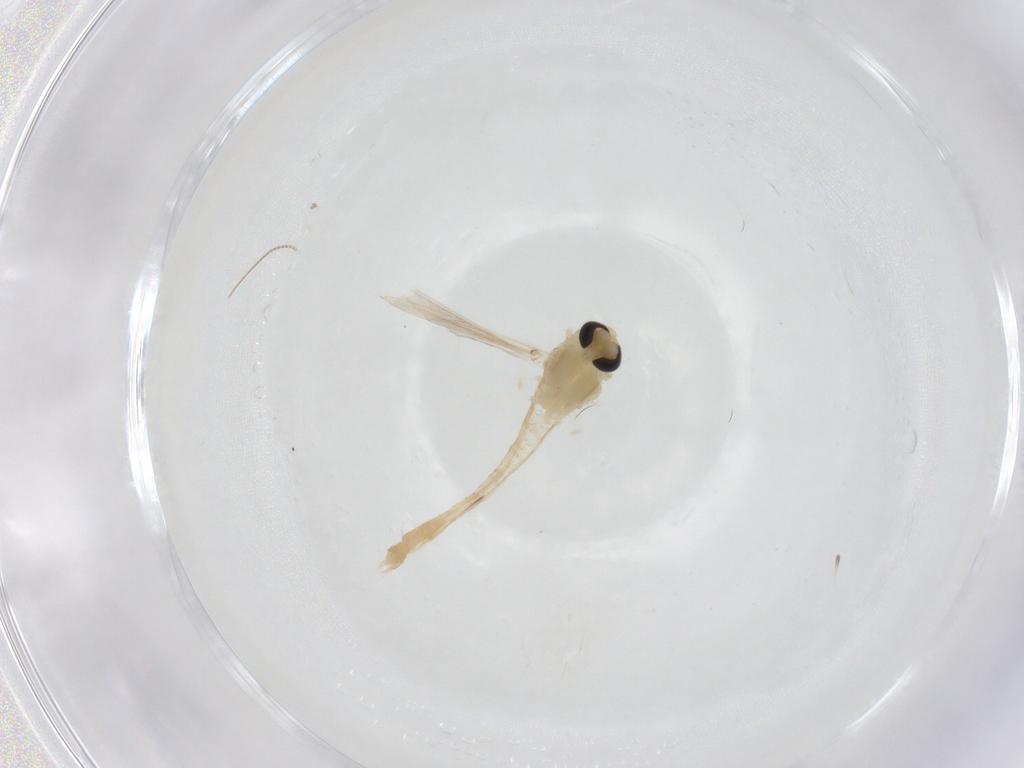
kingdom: Animalia
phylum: Arthropoda
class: Insecta
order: Diptera
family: Chironomidae
